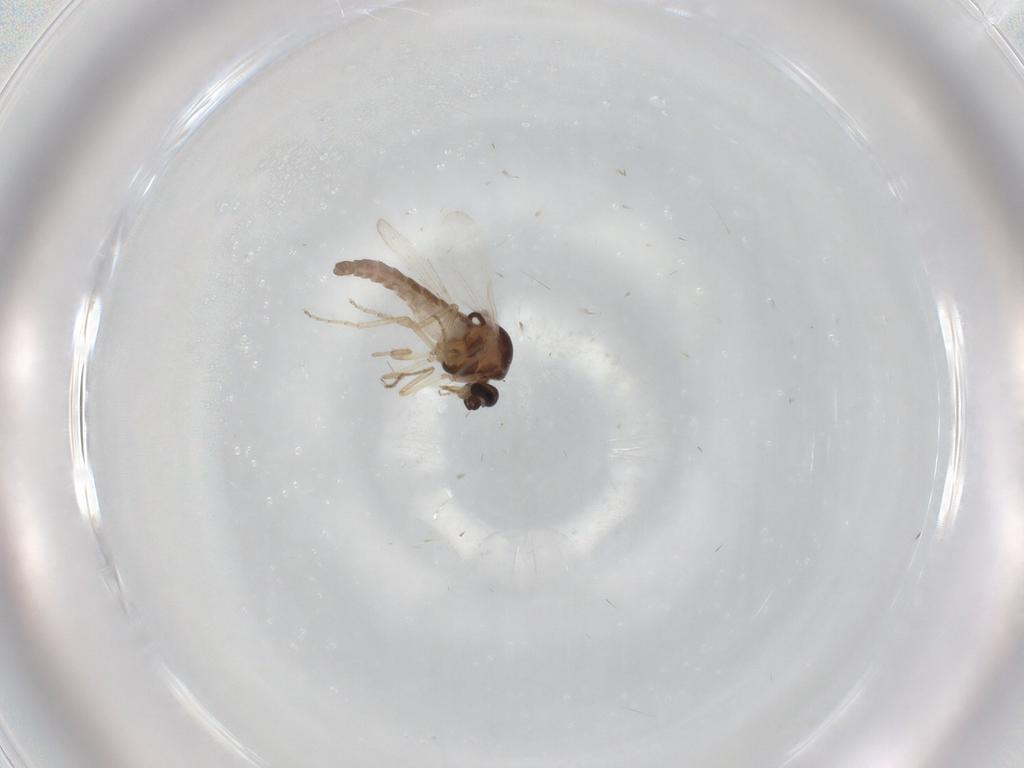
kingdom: Animalia
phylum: Arthropoda
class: Insecta
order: Diptera
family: Ceratopogonidae
